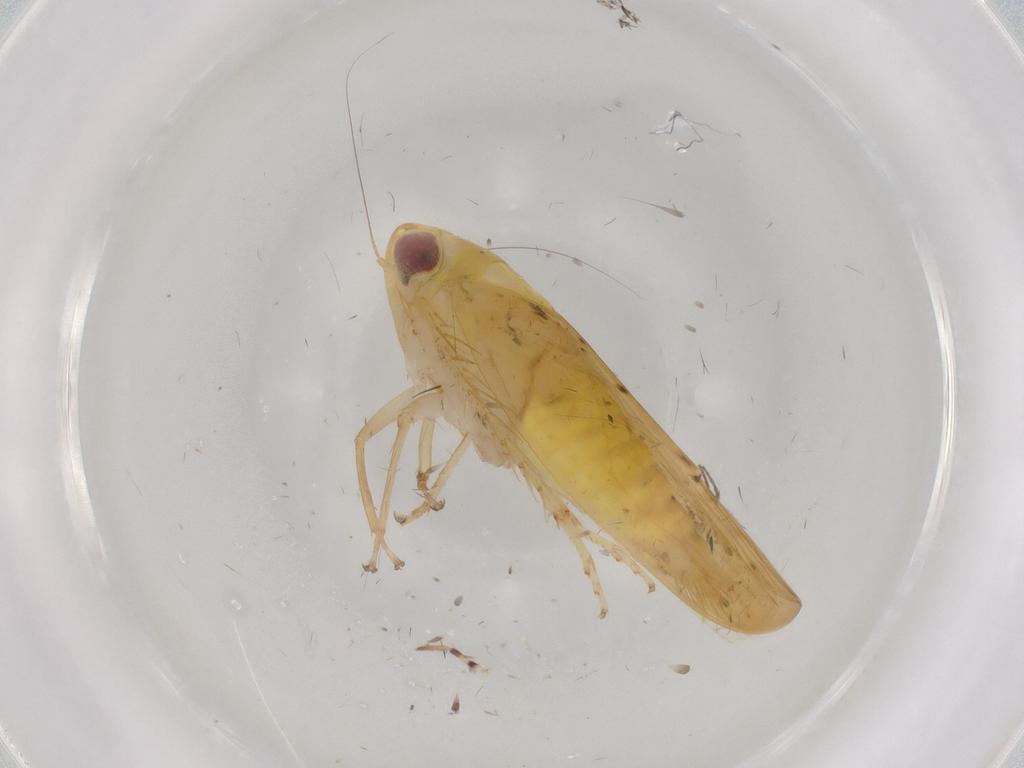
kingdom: Animalia
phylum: Arthropoda
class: Insecta
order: Hemiptera
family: Cicadellidae
